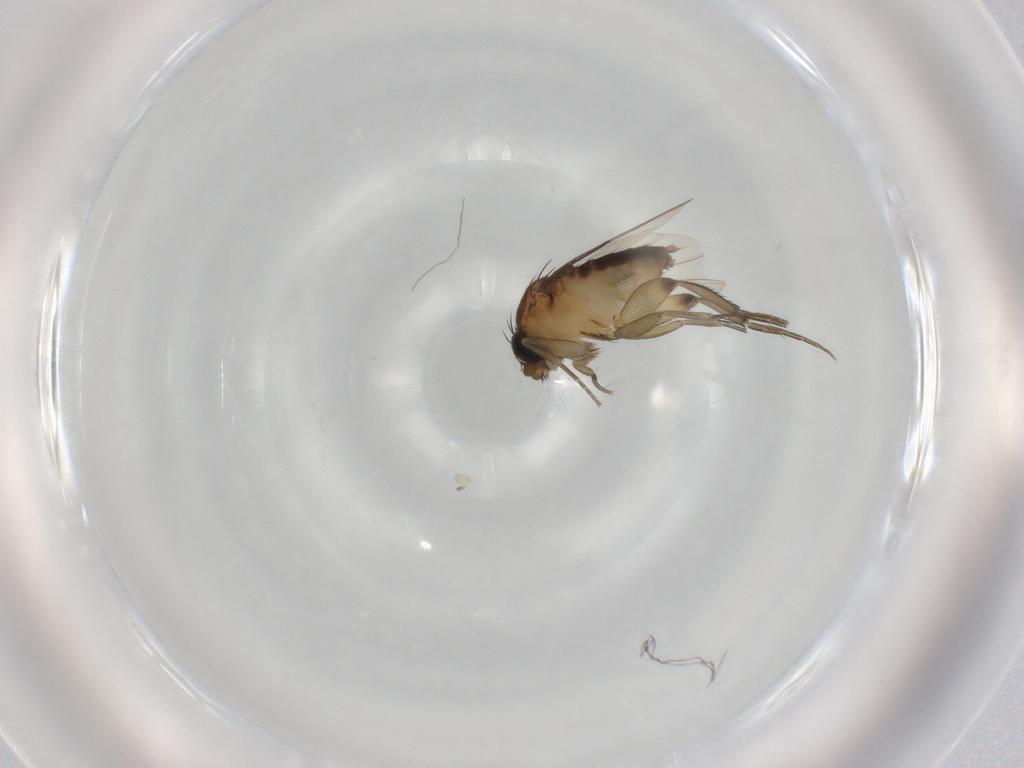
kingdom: Animalia
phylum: Arthropoda
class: Insecta
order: Diptera
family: Phoridae
